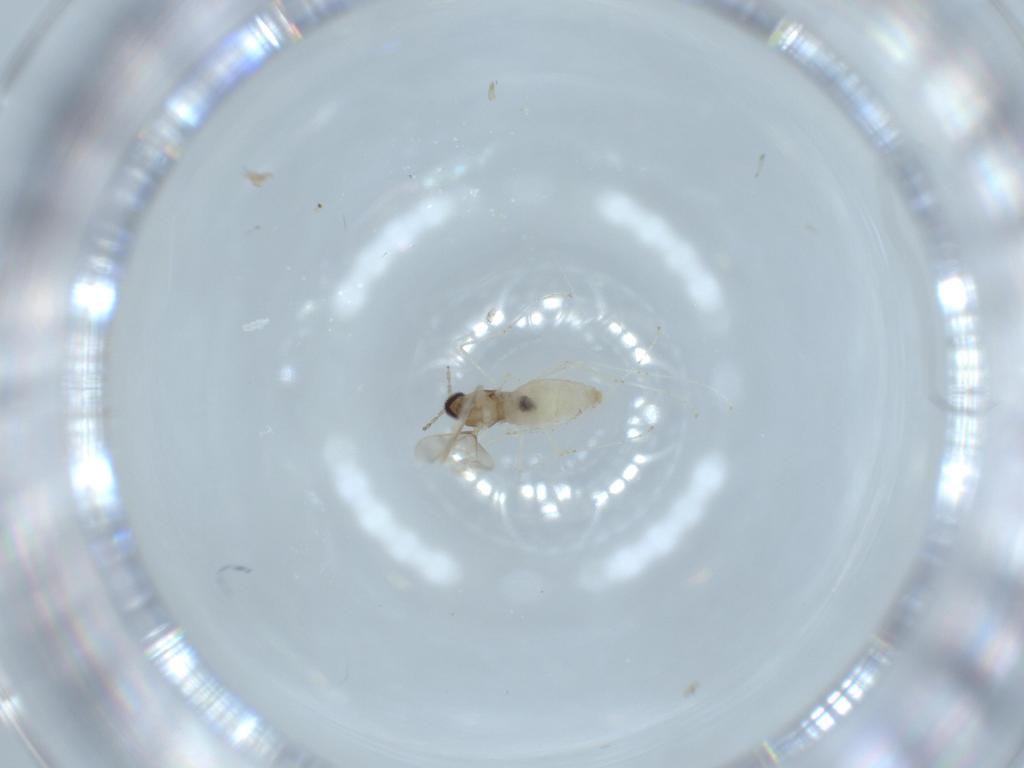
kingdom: Animalia
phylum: Arthropoda
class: Insecta
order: Diptera
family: Cecidomyiidae
